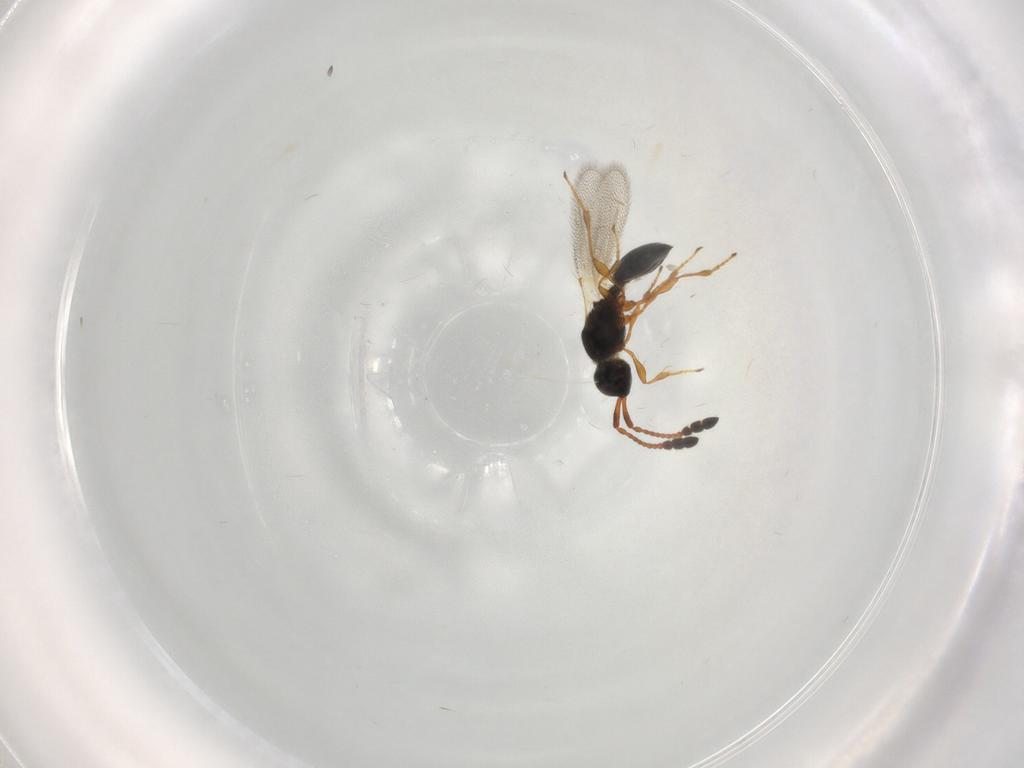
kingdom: Animalia
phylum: Arthropoda
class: Insecta
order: Hymenoptera
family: Diapriidae
